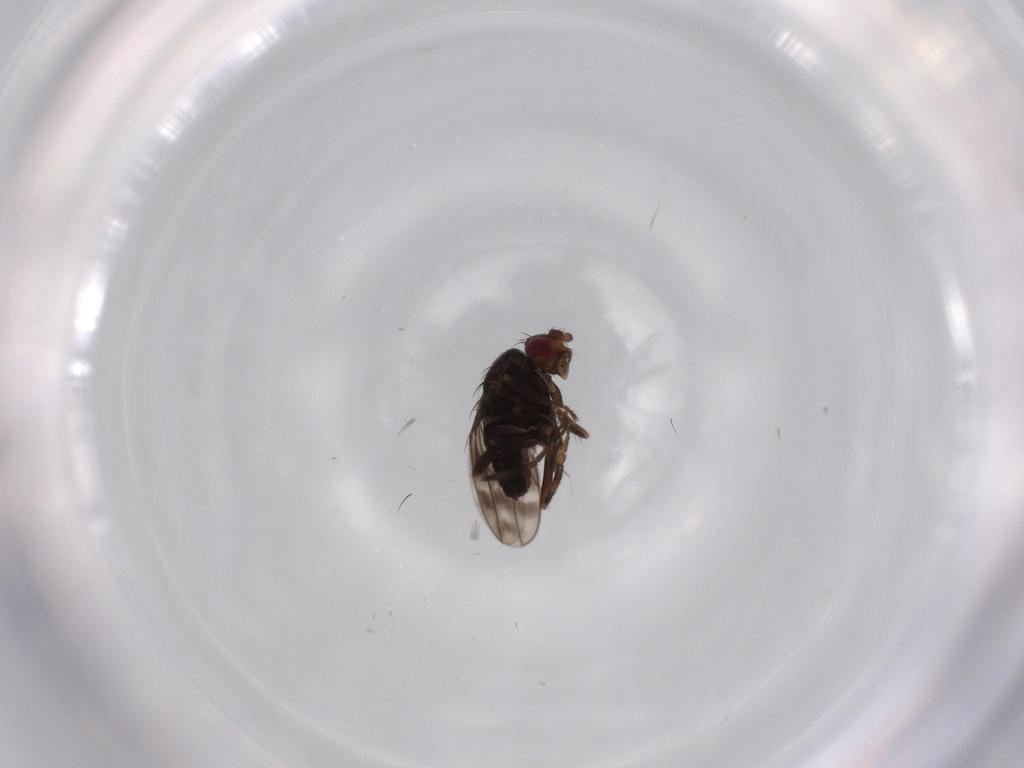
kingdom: Animalia
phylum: Arthropoda
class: Insecta
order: Diptera
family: Sphaeroceridae
